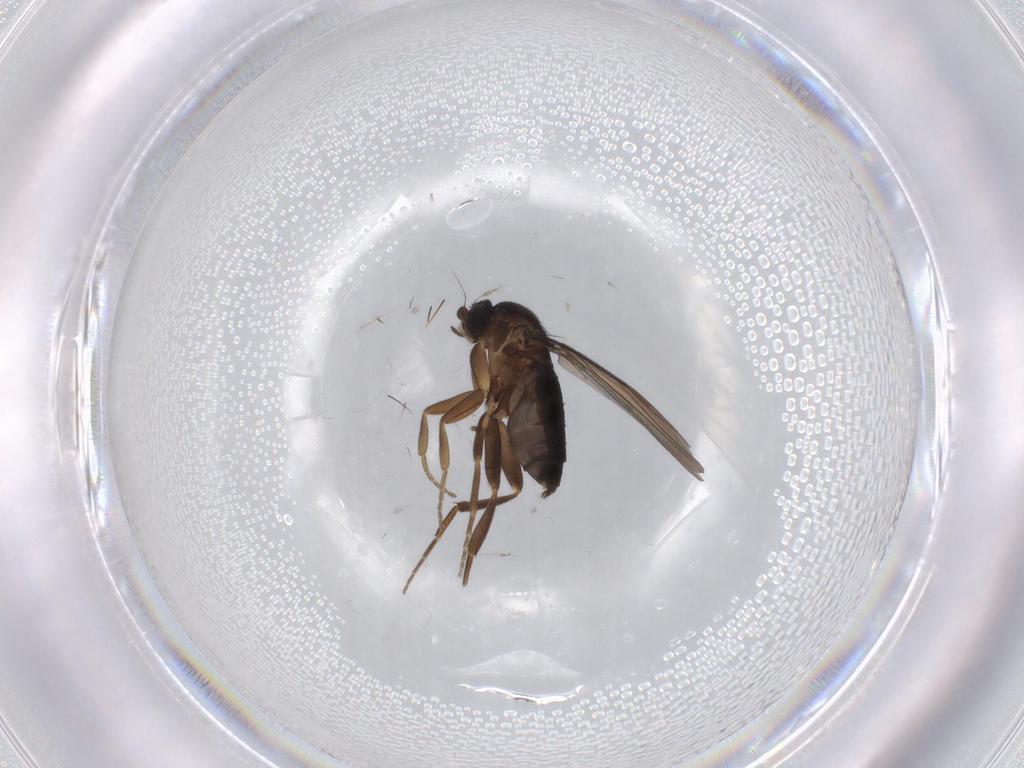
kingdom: Animalia
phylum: Arthropoda
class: Insecta
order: Diptera
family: Chironomidae
